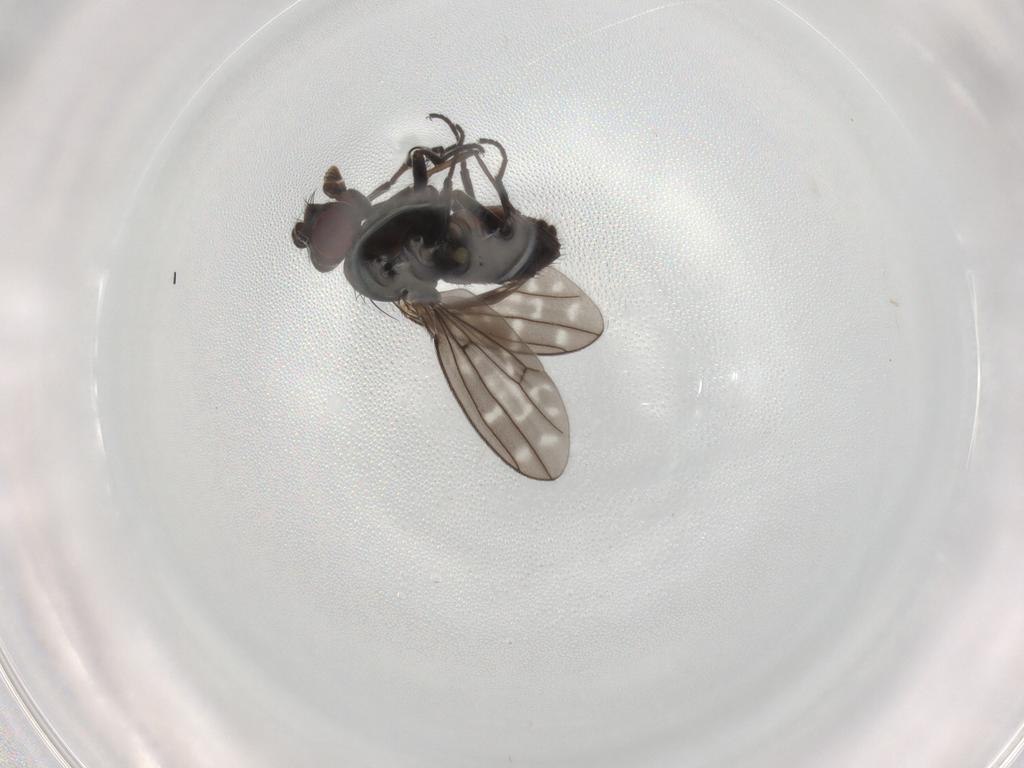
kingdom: Animalia
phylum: Arthropoda
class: Insecta
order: Diptera
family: Ephydridae
